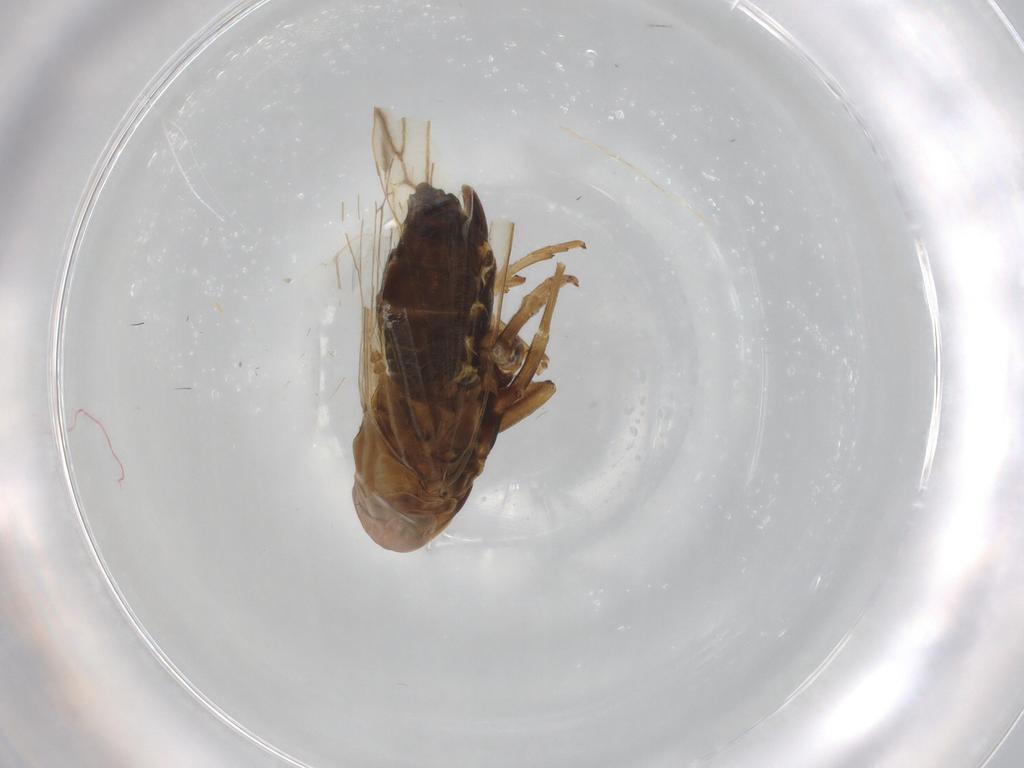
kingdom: Animalia
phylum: Arthropoda
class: Insecta
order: Hemiptera
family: Delphacidae
